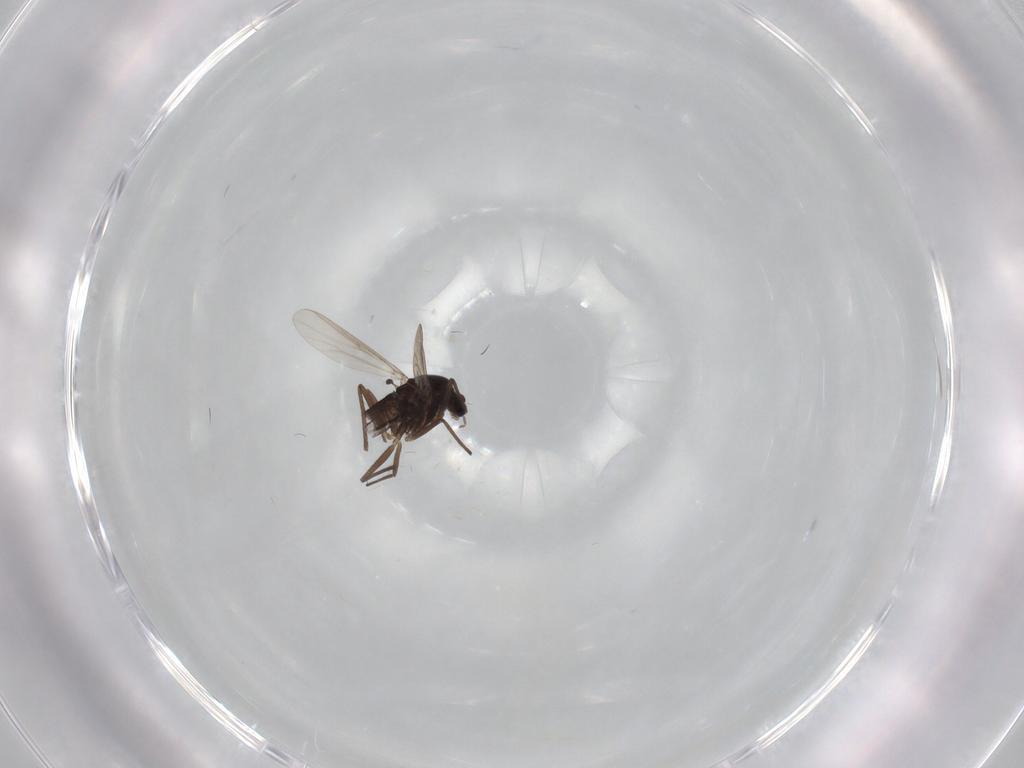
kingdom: Animalia
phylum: Arthropoda
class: Insecta
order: Diptera
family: Chironomidae
